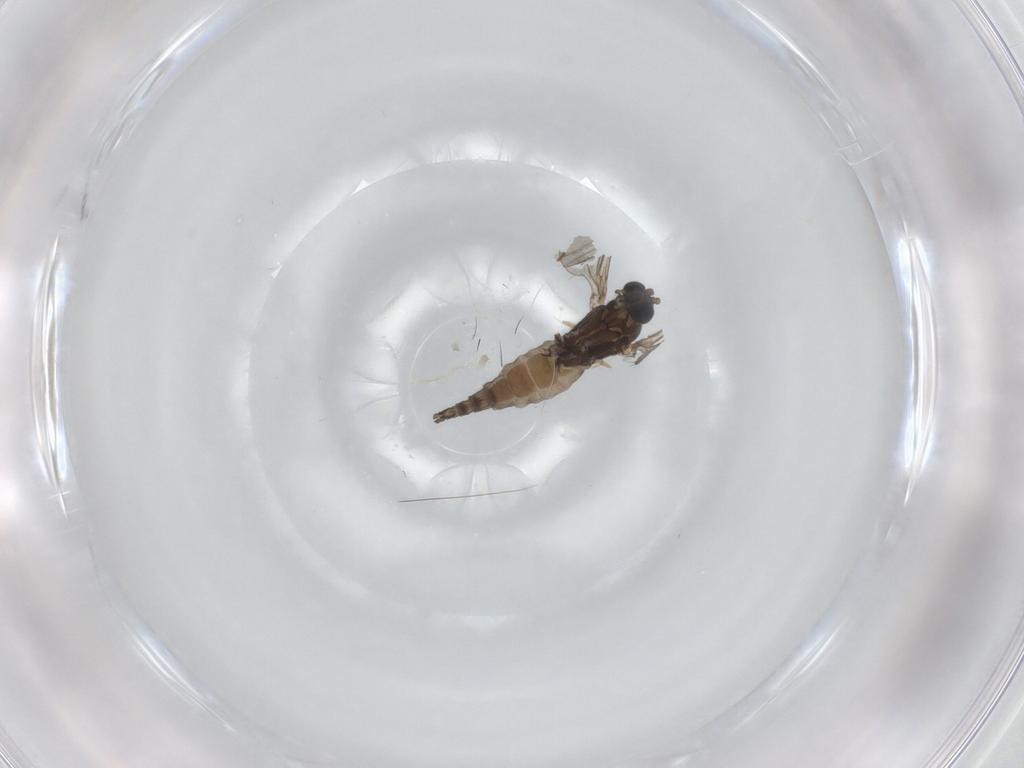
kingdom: Animalia
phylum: Arthropoda
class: Insecta
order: Diptera
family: Sciaridae
